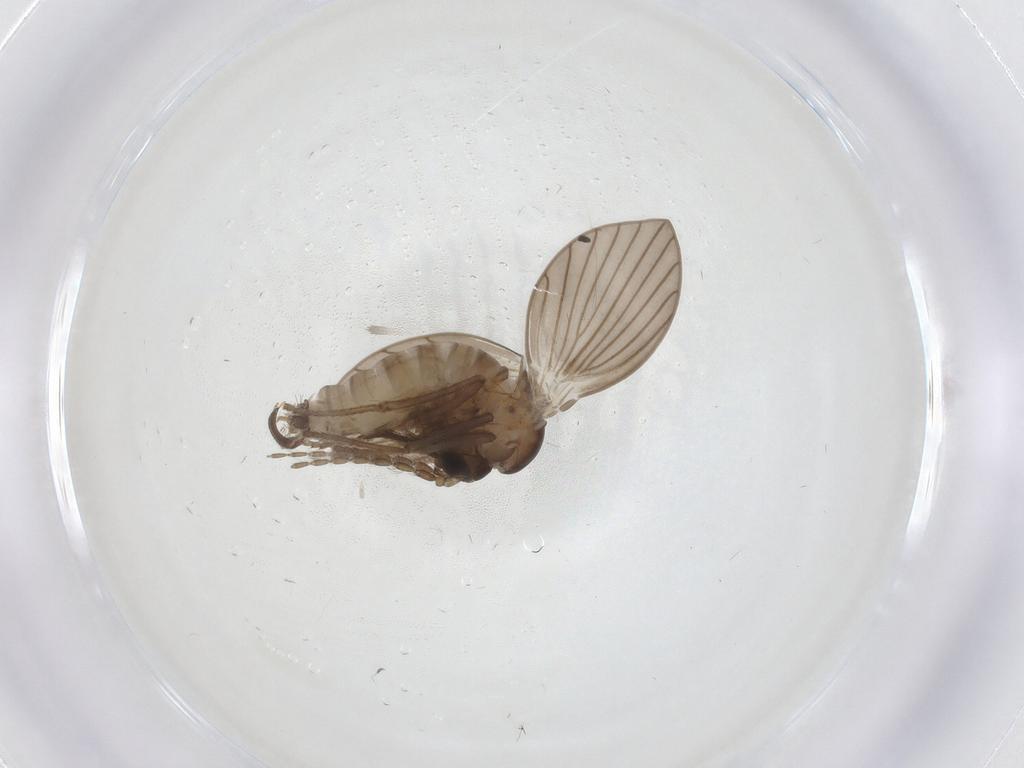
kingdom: Animalia
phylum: Arthropoda
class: Insecta
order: Diptera
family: Psychodidae
